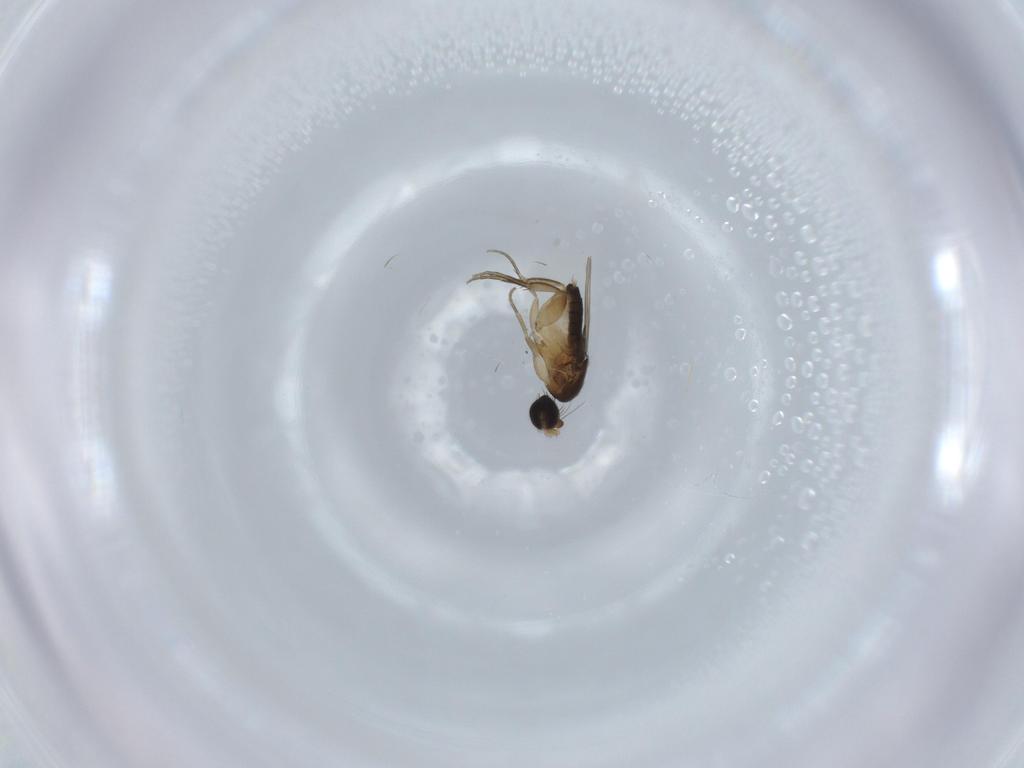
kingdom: Animalia
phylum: Arthropoda
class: Insecta
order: Diptera
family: Phoridae
